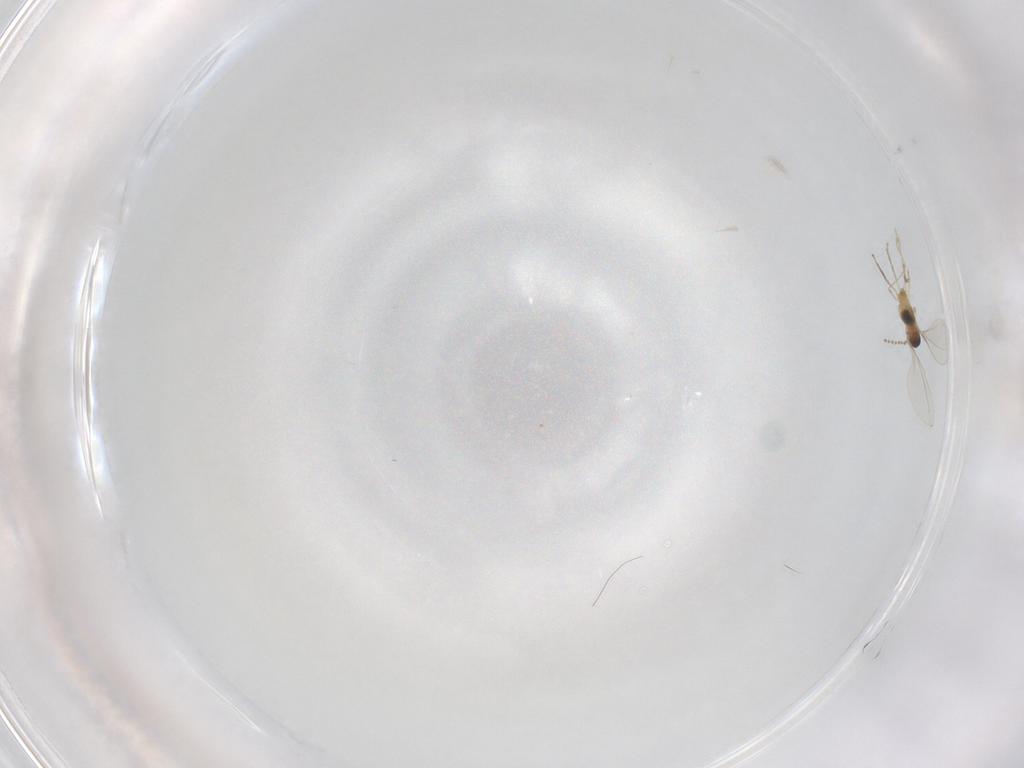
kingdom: Animalia
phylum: Arthropoda
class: Insecta
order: Diptera
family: Cecidomyiidae
